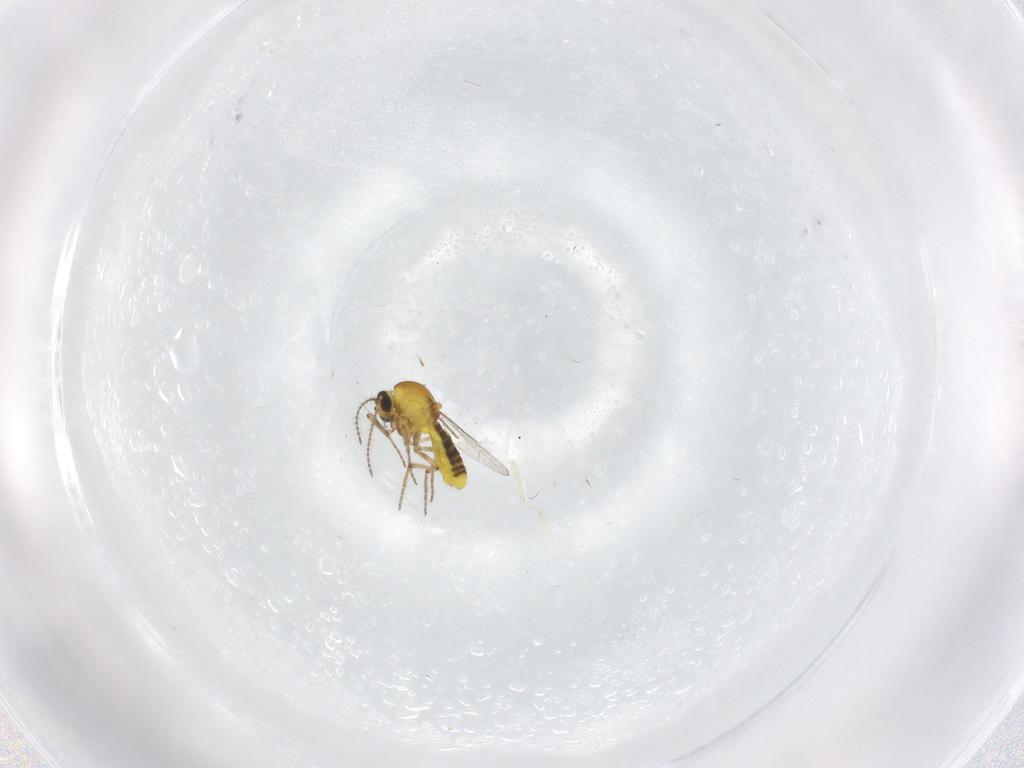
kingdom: Animalia
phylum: Arthropoda
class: Insecta
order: Diptera
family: Ceratopogonidae
